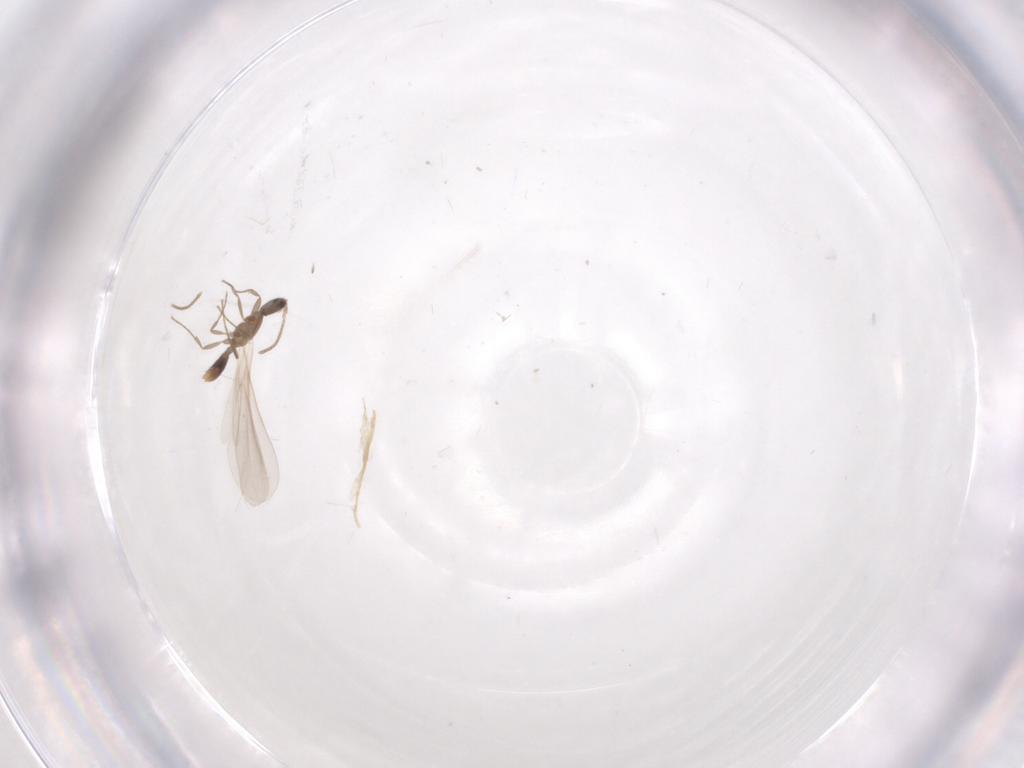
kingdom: Animalia
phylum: Arthropoda
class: Insecta
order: Hymenoptera
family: Formicidae
